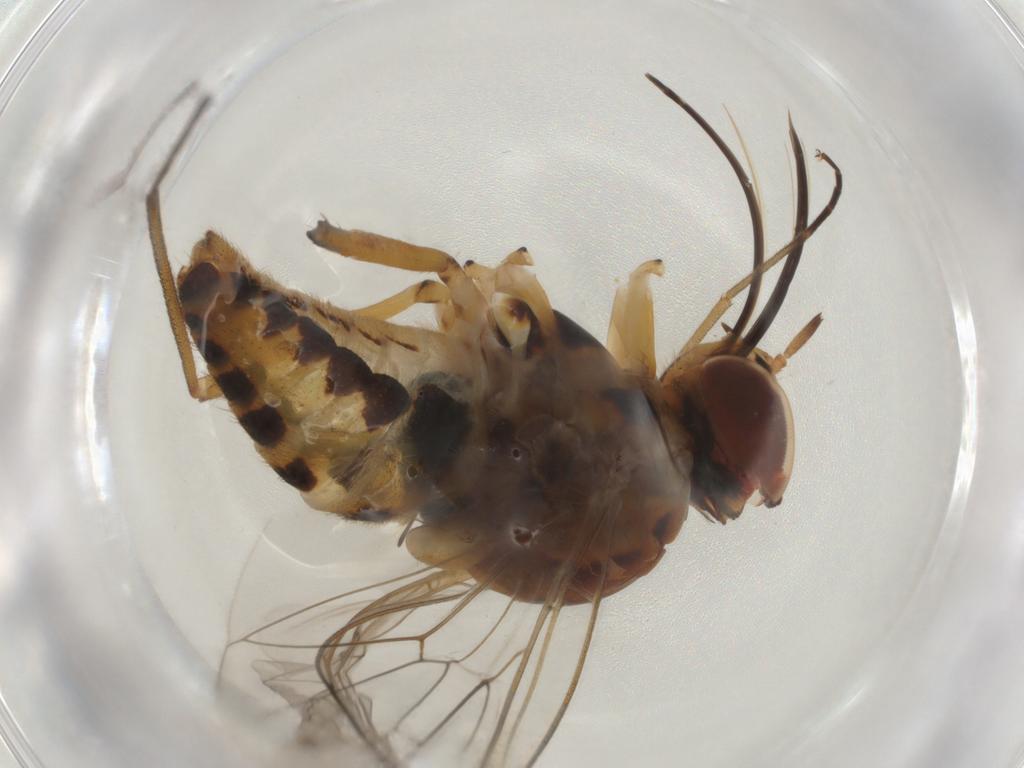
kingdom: Animalia
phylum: Arthropoda
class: Insecta
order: Diptera
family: Bombyliidae
